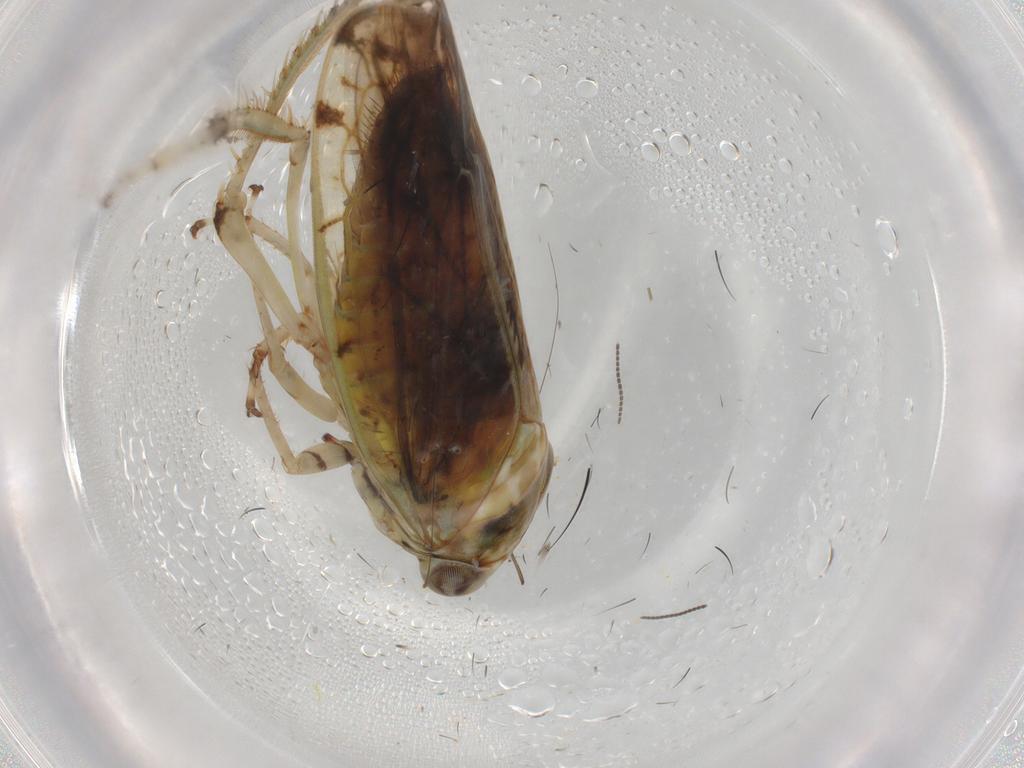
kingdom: Animalia
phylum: Arthropoda
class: Insecta
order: Hemiptera
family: Cicadellidae
